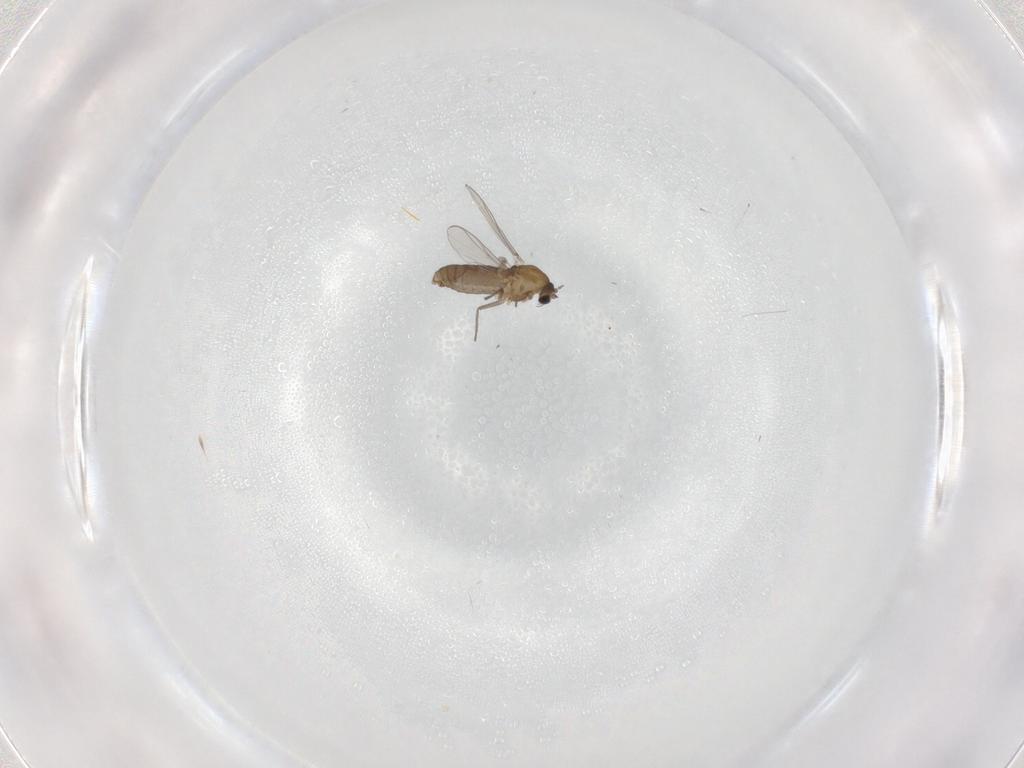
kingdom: Animalia
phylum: Arthropoda
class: Insecta
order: Diptera
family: Chironomidae
